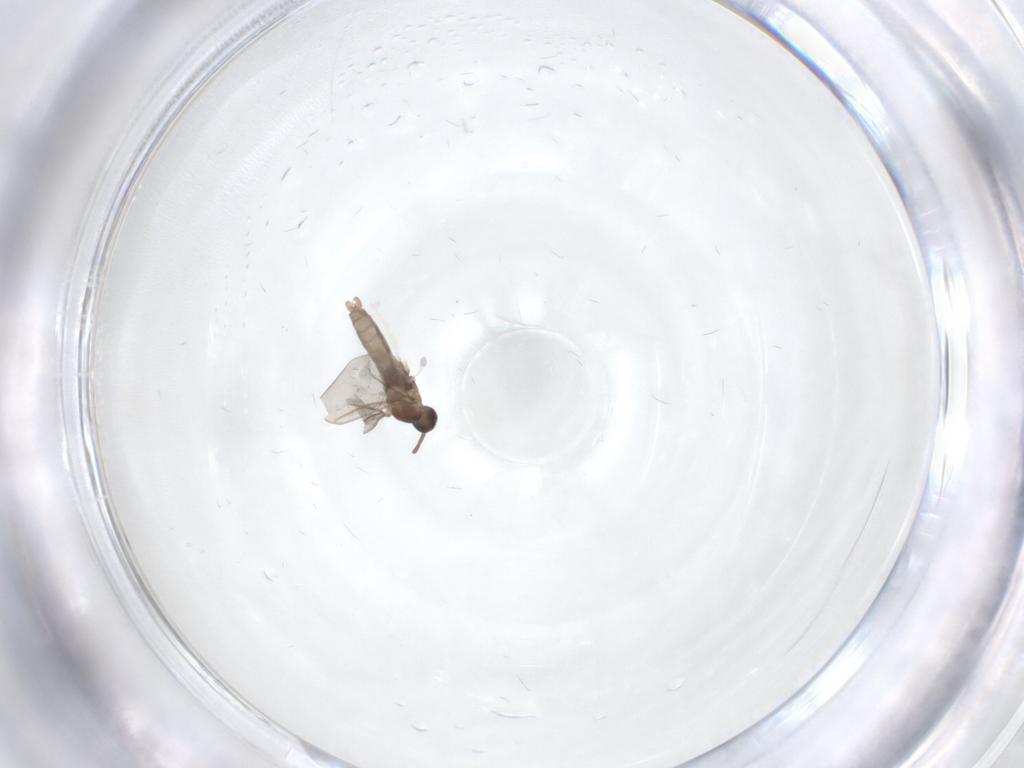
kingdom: Animalia
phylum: Arthropoda
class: Insecta
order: Diptera
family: Cecidomyiidae
